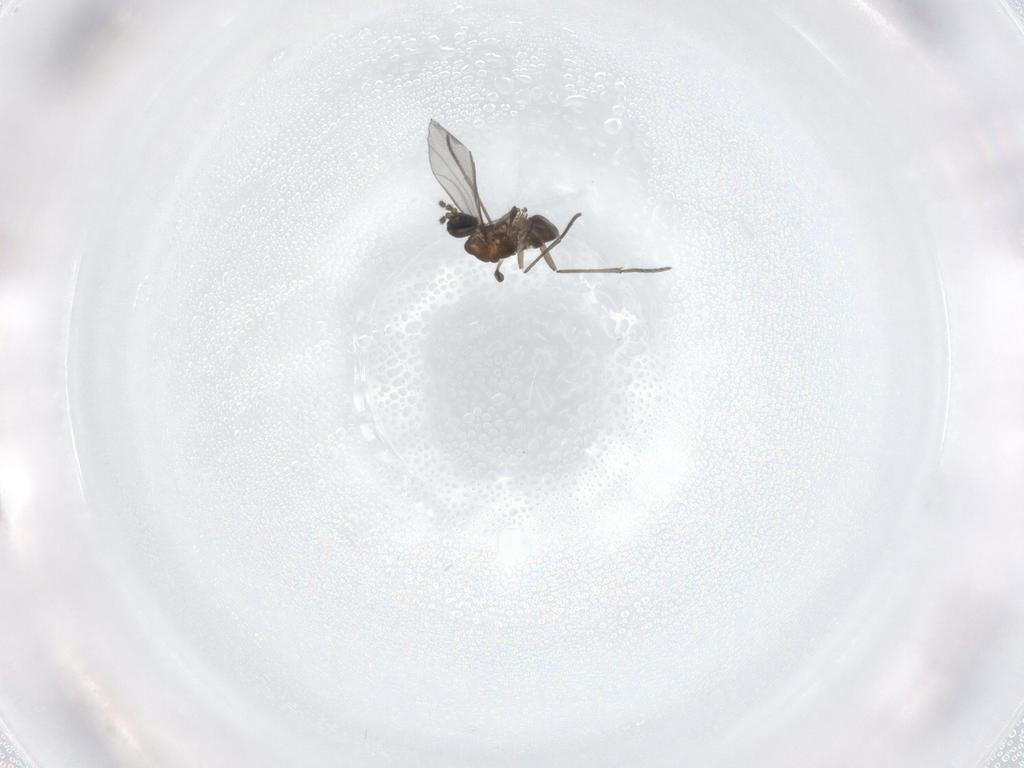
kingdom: Animalia
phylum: Arthropoda
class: Insecta
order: Diptera
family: Sciaridae
